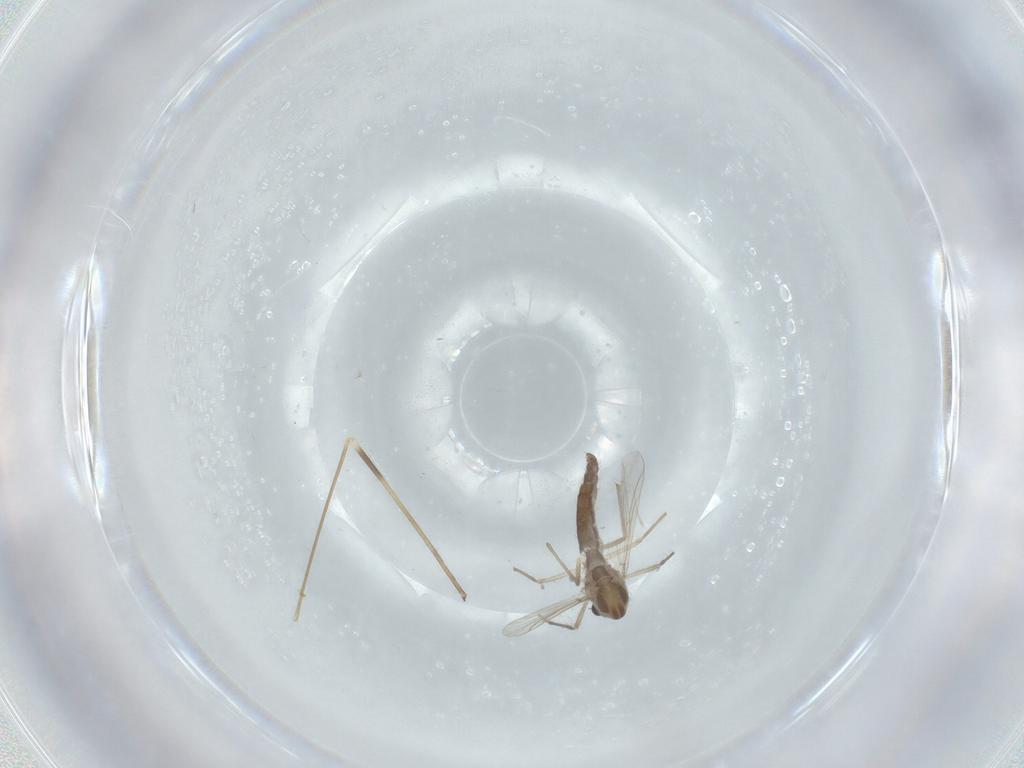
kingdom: Animalia
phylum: Arthropoda
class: Insecta
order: Diptera
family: Chironomidae
